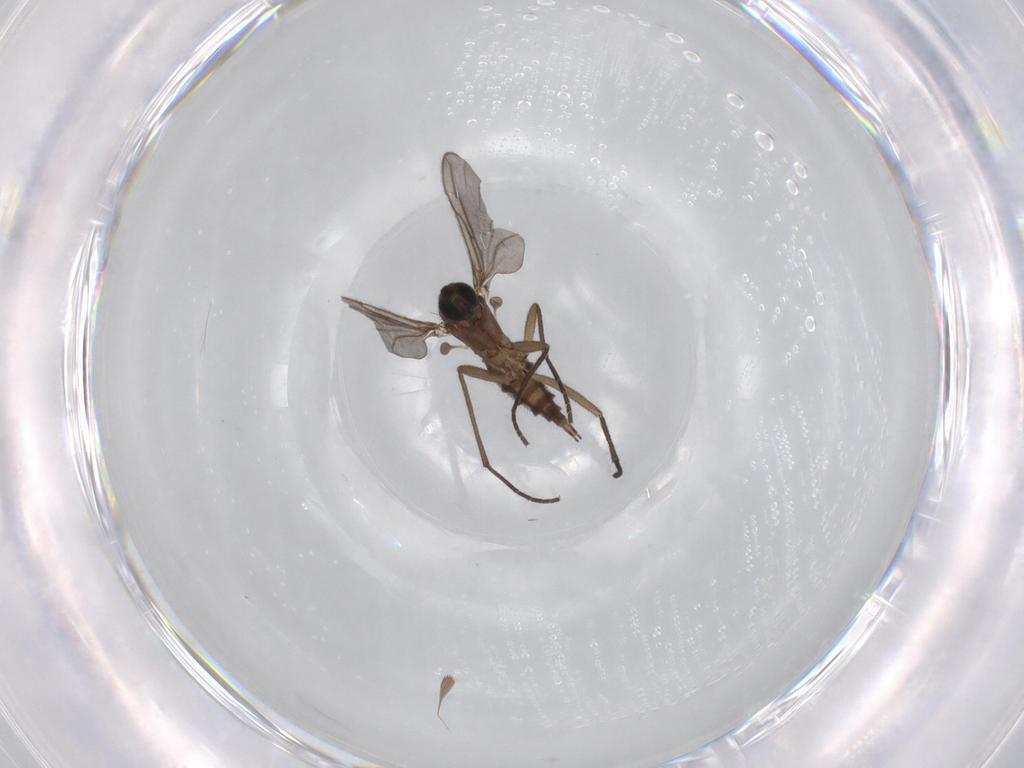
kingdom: Animalia
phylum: Arthropoda
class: Insecta
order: Diptera
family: Sciaridae
